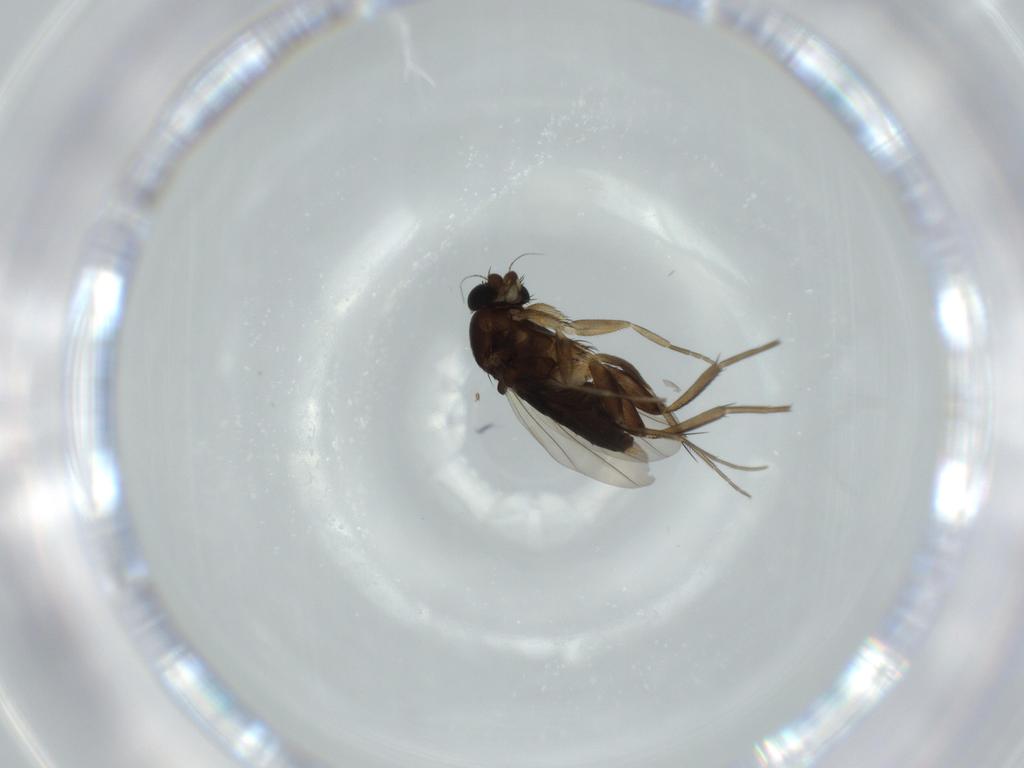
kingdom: Animalia
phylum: Arthropoda
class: Insecta
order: Diptera
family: Phoridae
